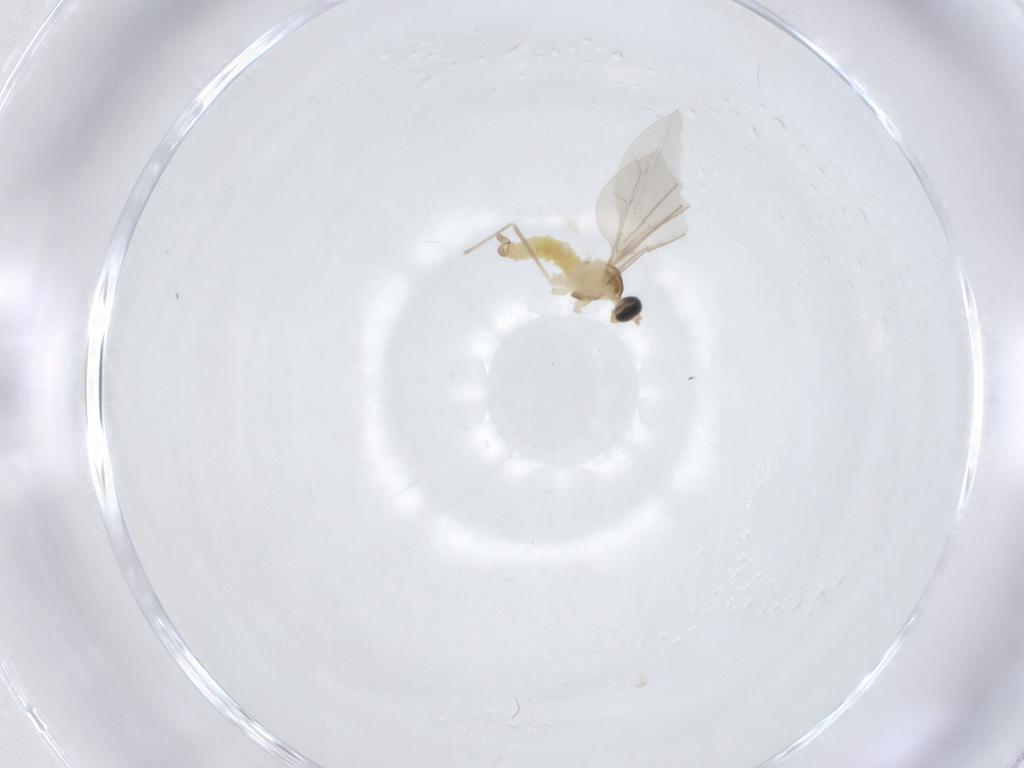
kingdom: Animalia
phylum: Arthropoda
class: Insecta
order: Diptera
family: Cecidomyiidae
